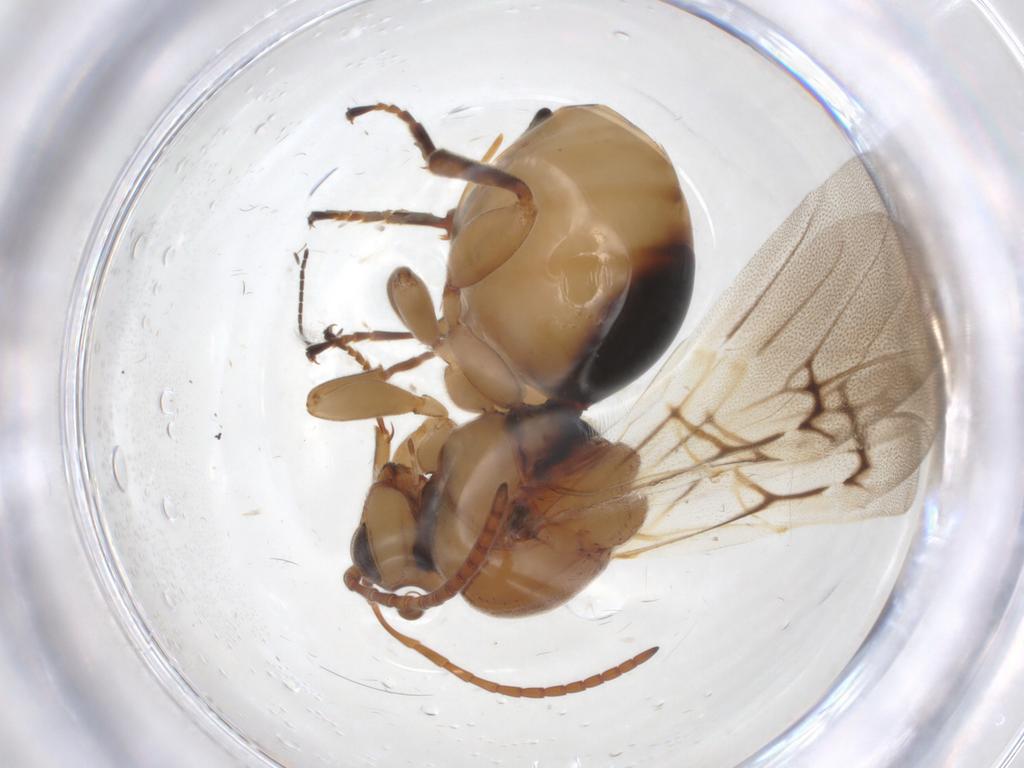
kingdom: Animalia
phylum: Arthropoda
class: Insecta
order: Hymenoptera
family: Cynipidae
